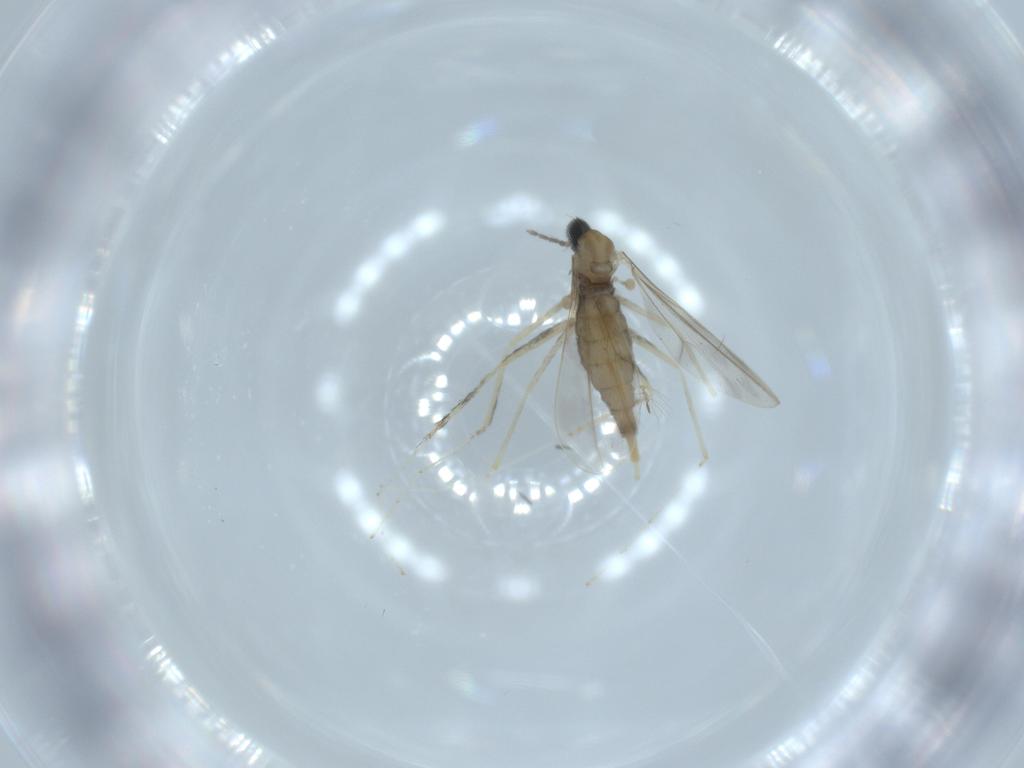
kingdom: Animalia
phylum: Arthropoda
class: Insecta
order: Diptera
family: Cecidomyiidae
